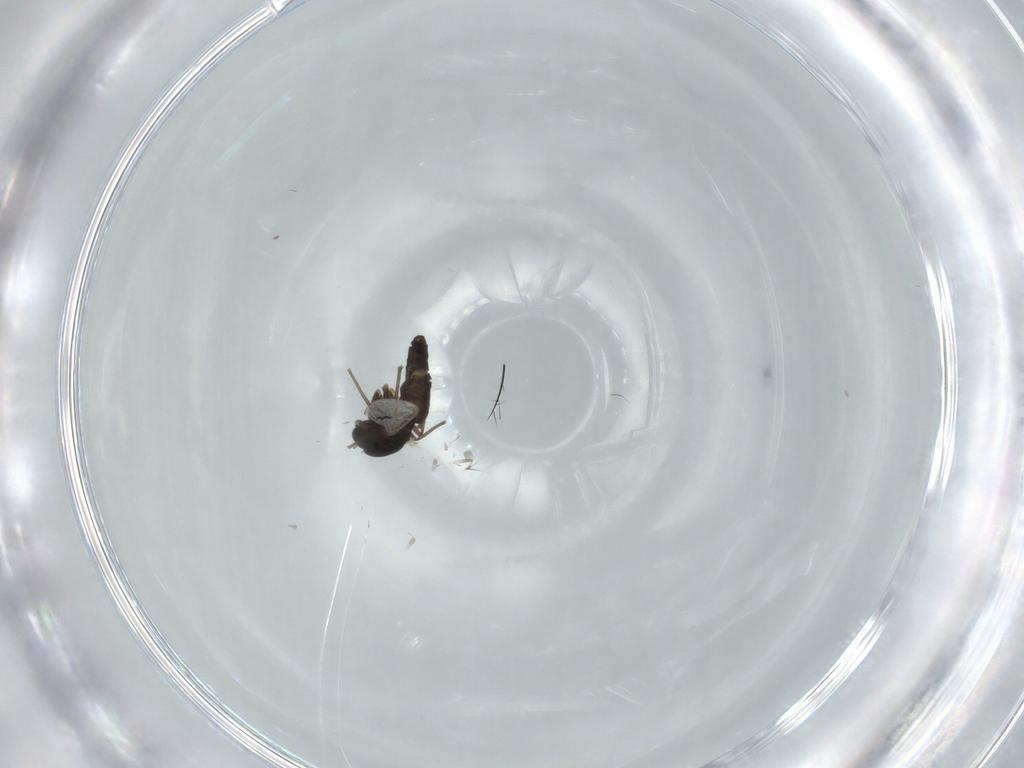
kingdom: Animalia
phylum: Arthropoda
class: Insecta
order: Diptera
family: Chironomidae
